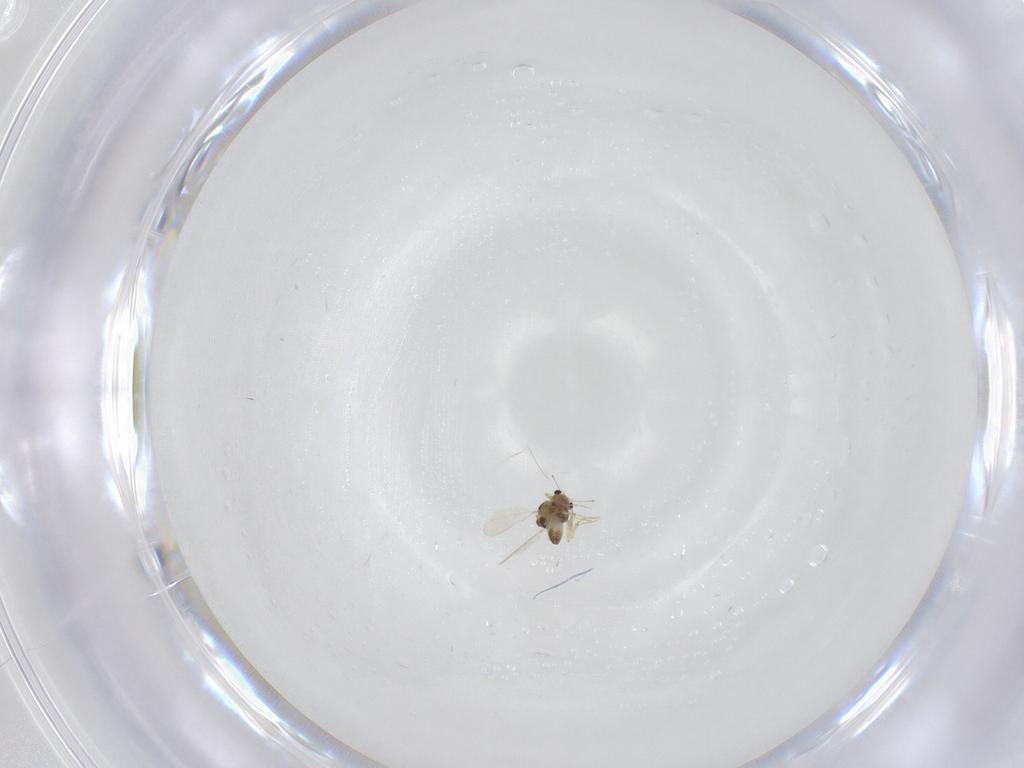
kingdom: Animalia
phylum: Arthropoda
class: Insecta
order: Diptera
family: Chironomidae
